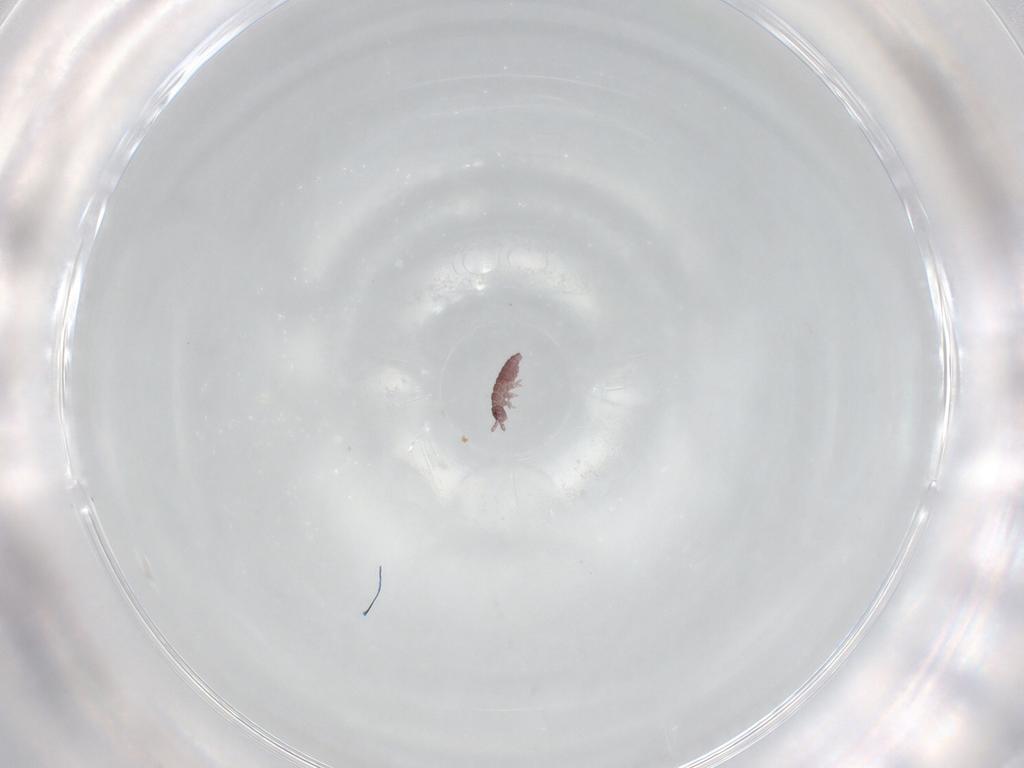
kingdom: Animalia
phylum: Arthropoda
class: Collembola
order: Poduromorpha
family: Hypogastruridae
